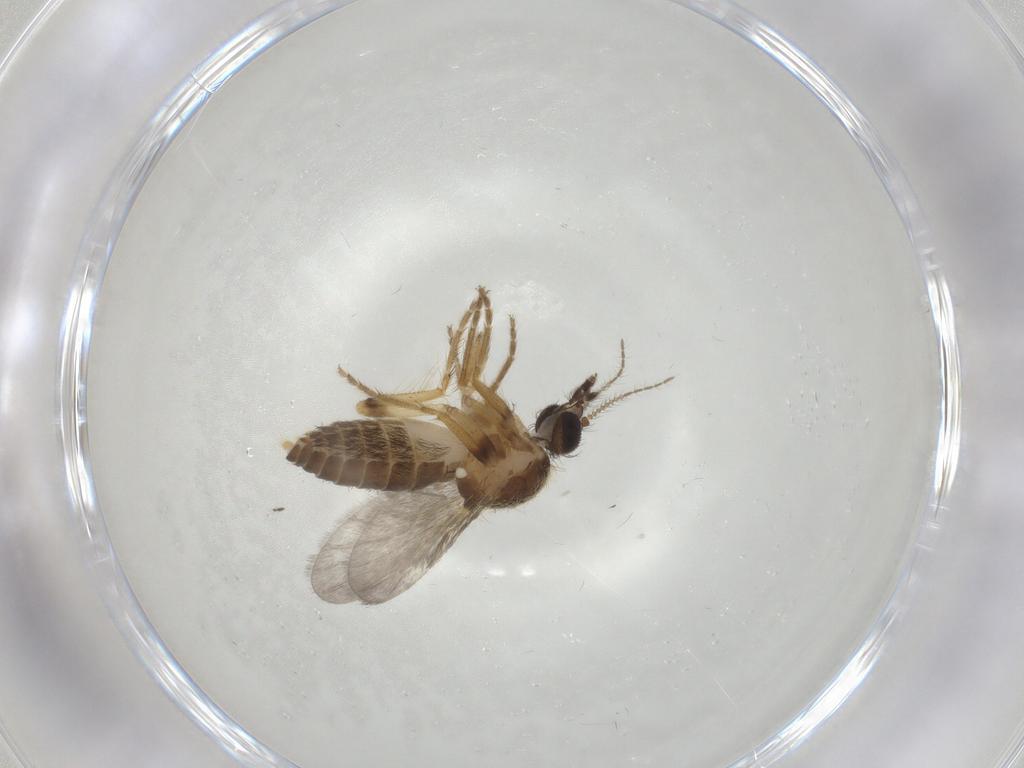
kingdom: Animalia
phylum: Arthropoda
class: Insecta
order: Diptera
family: Ceratopogonidae
